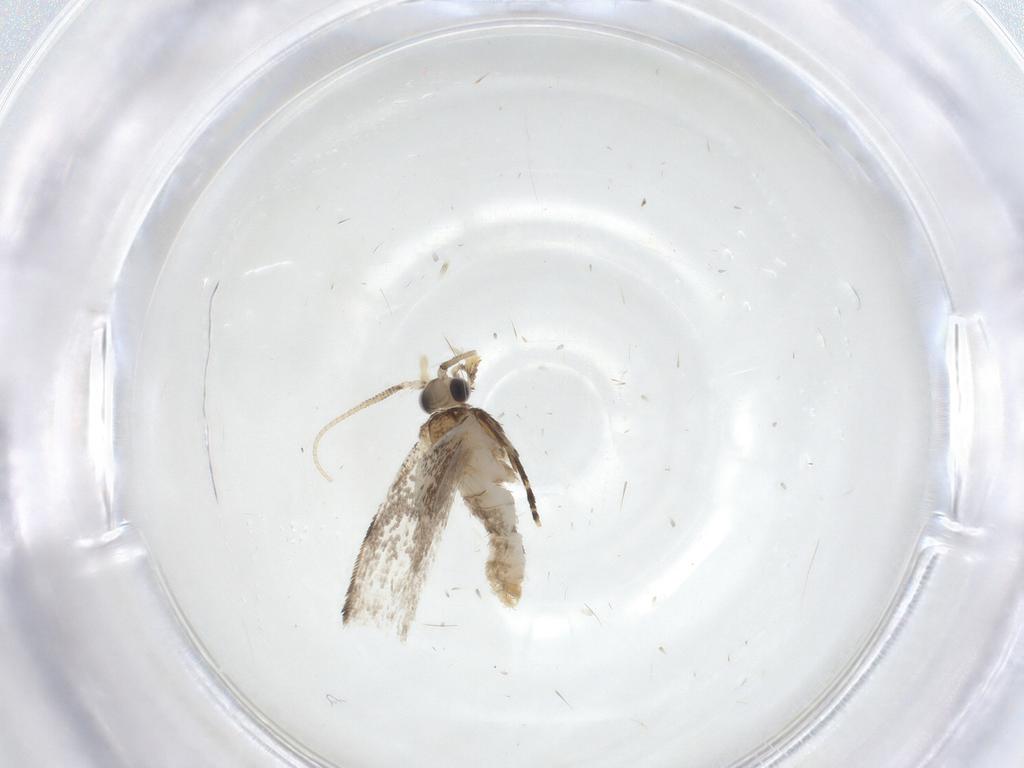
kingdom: Animalia
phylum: Arthropoda
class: Insecta
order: Lepidoptera
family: Dryadaulidae
